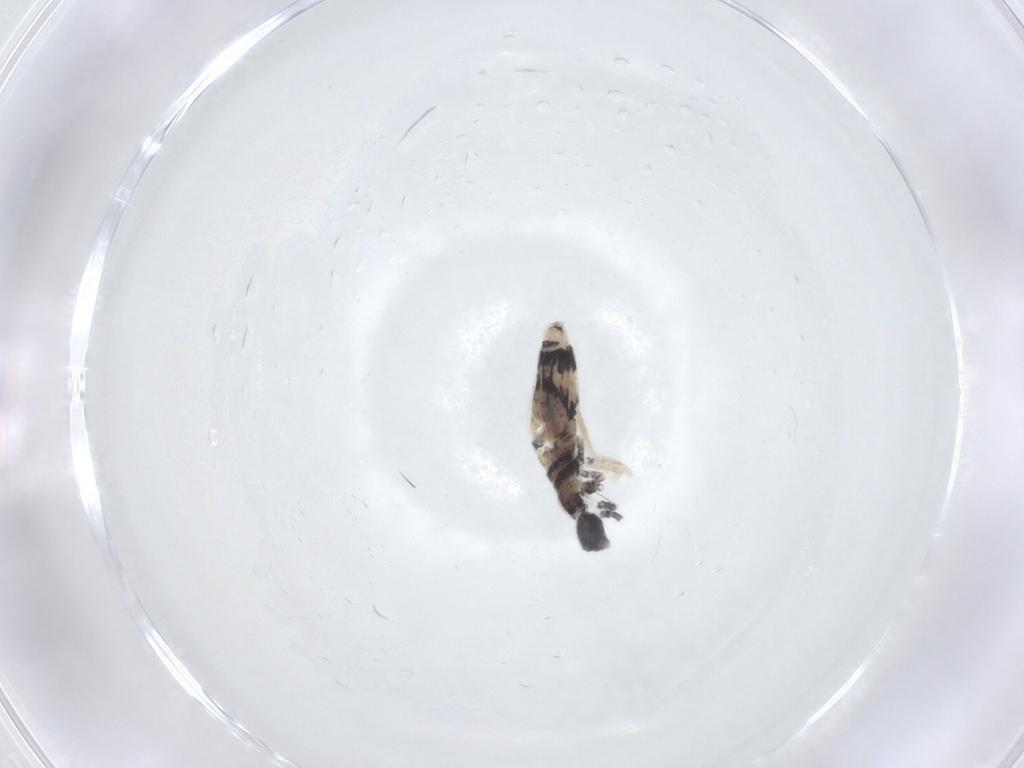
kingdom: Animalia
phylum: Arthropoda
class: Collembola
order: Entomobryomorpha
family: Entomobryidae
